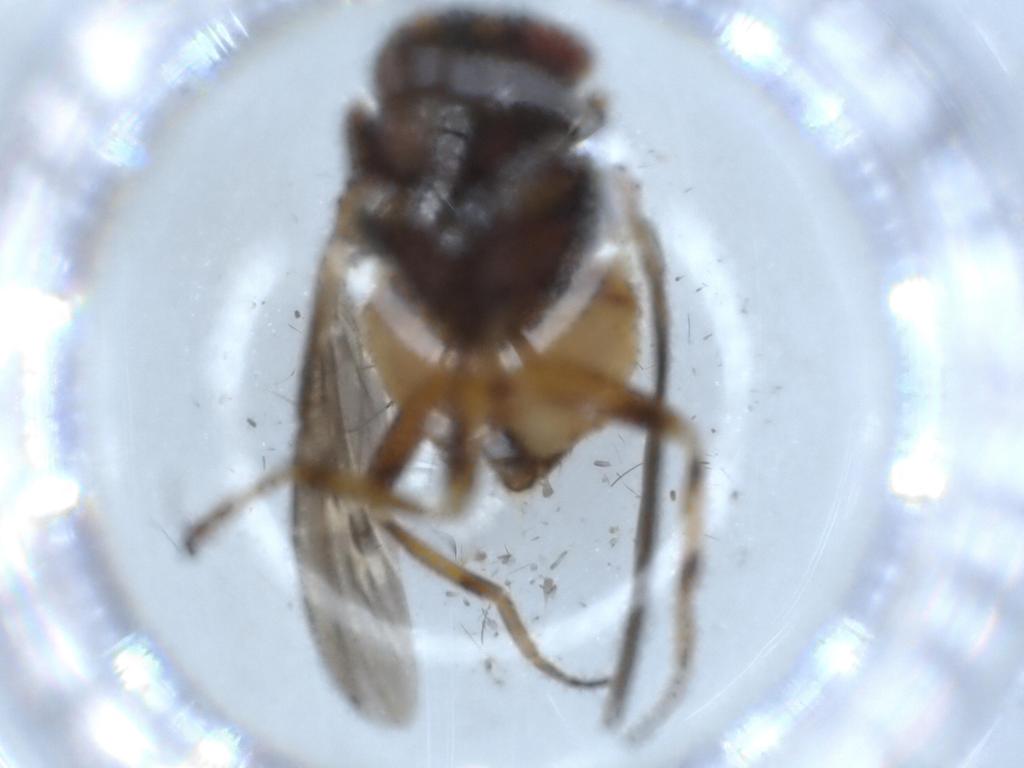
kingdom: Animalia
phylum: Arthropoda
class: Insecta
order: Diptera
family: Odiniidae
